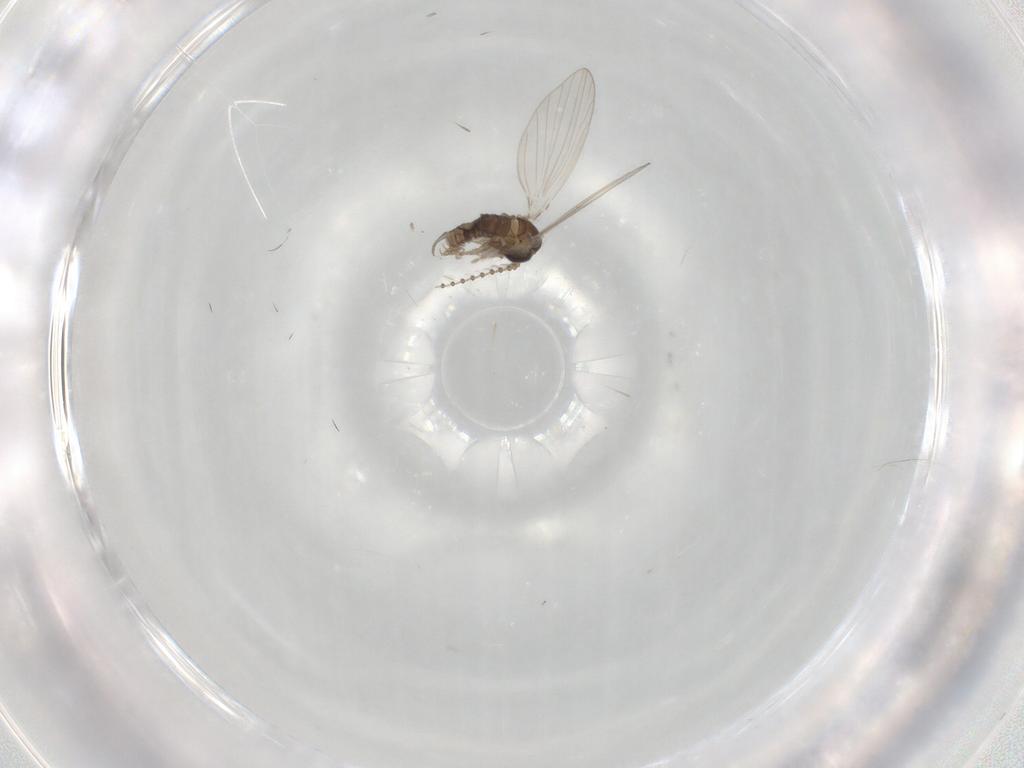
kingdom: Animalia
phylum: Arthropoda
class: Insecta
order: Diptera
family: Psychodidae
